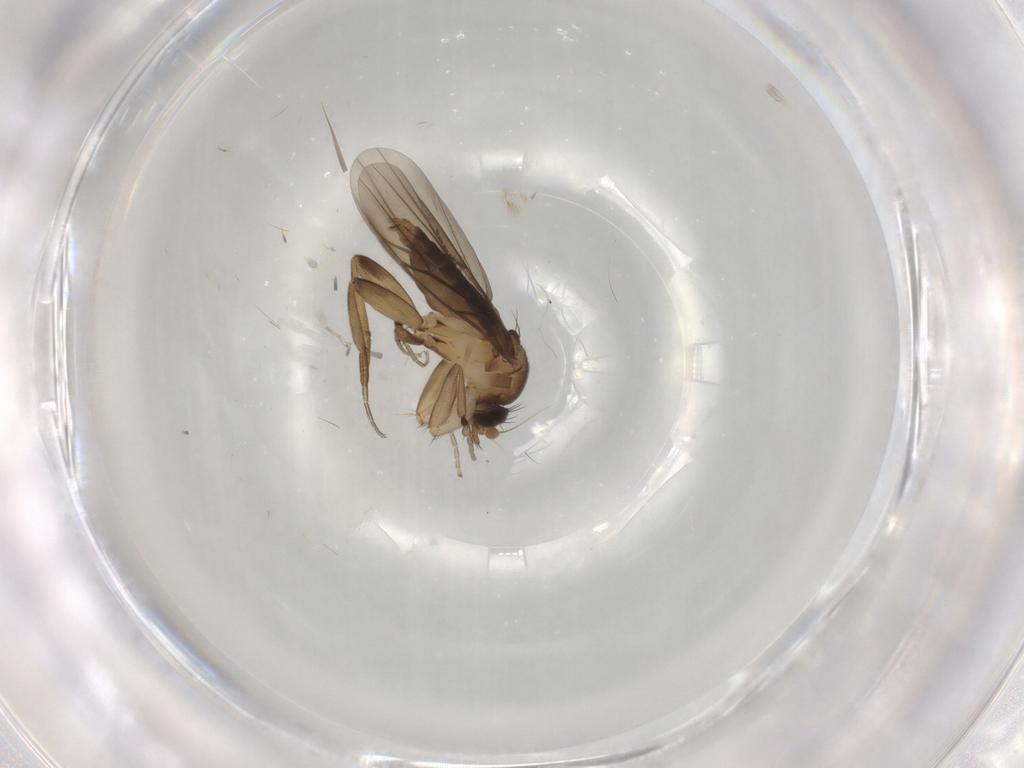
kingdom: Animalia
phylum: Arthropoda
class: Insecta
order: Diptera
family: Phoridae
